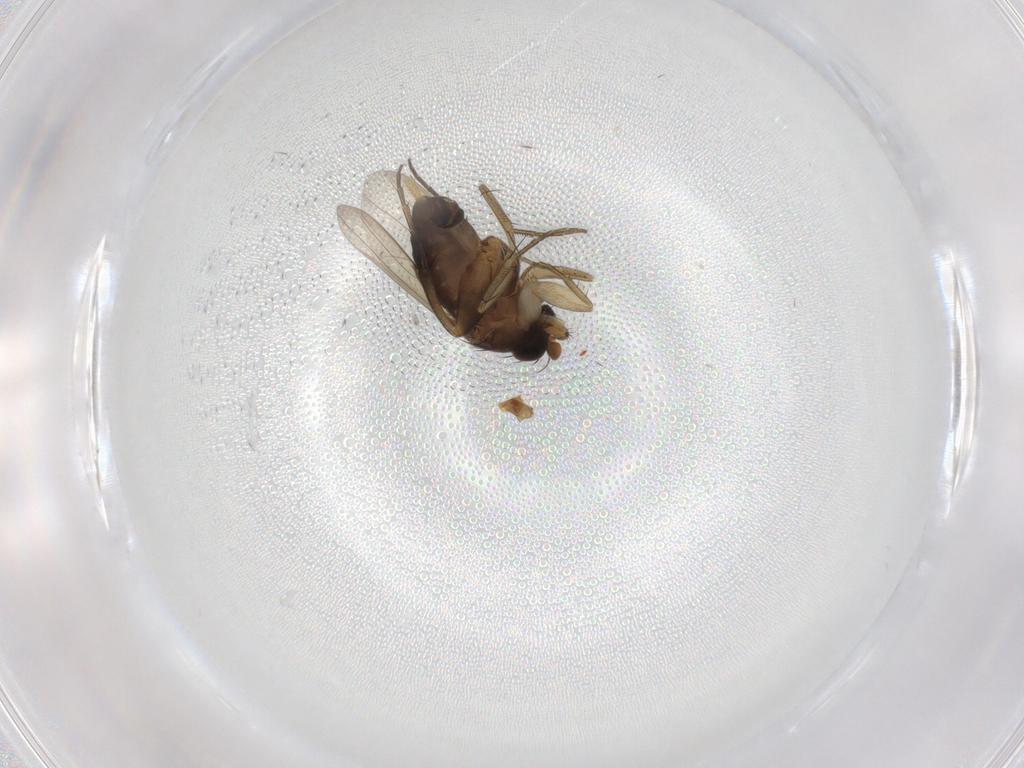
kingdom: Animalia
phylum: Arthropoda
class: Insecta
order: Diptera
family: Phoridae
